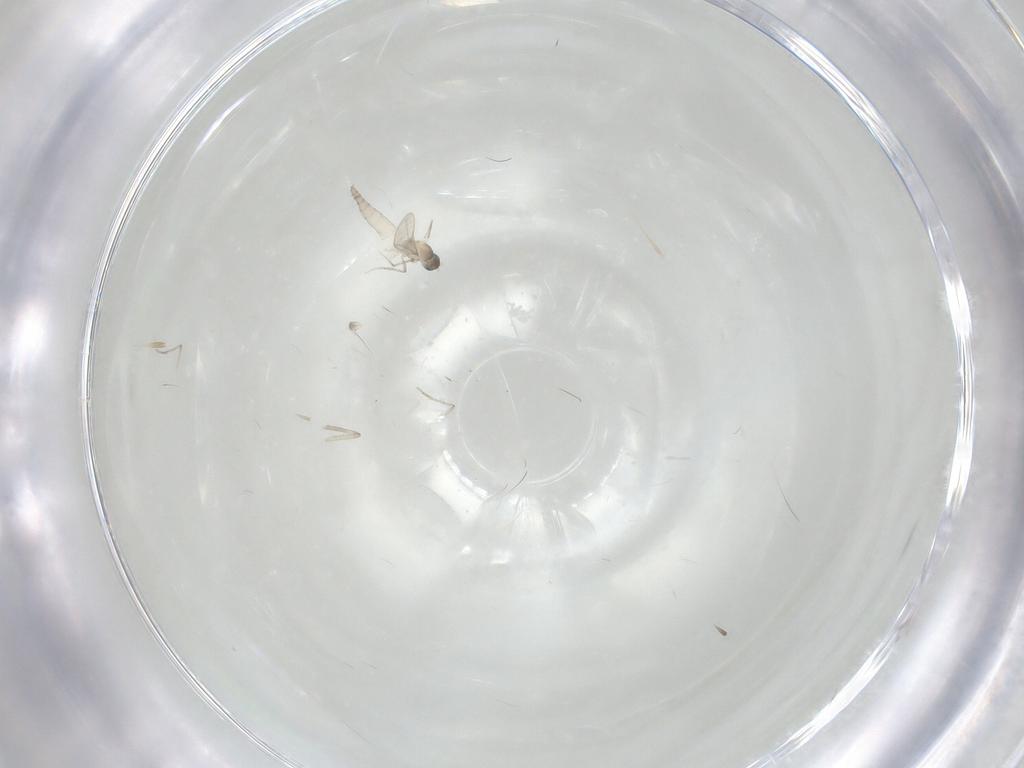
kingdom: Animalia
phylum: Arthropoda
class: Insecta
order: Diptera
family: Cecidomyiidae
